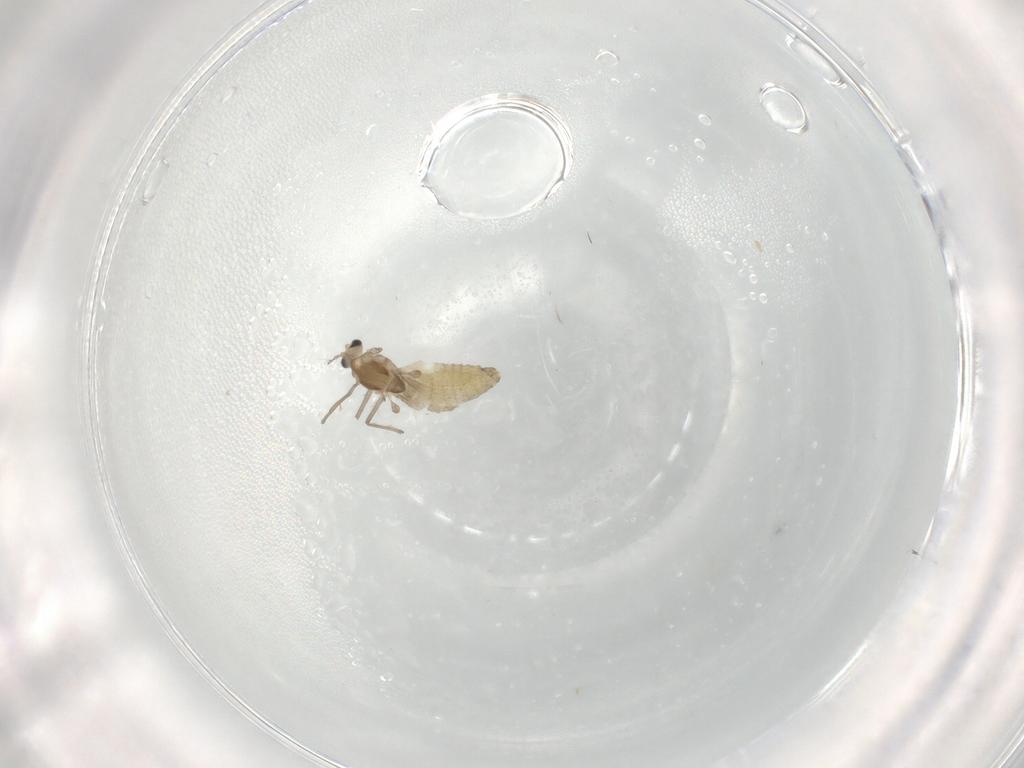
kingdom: Animalia
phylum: Arthropoda
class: Insecta
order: Diptera
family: Chironomidae
